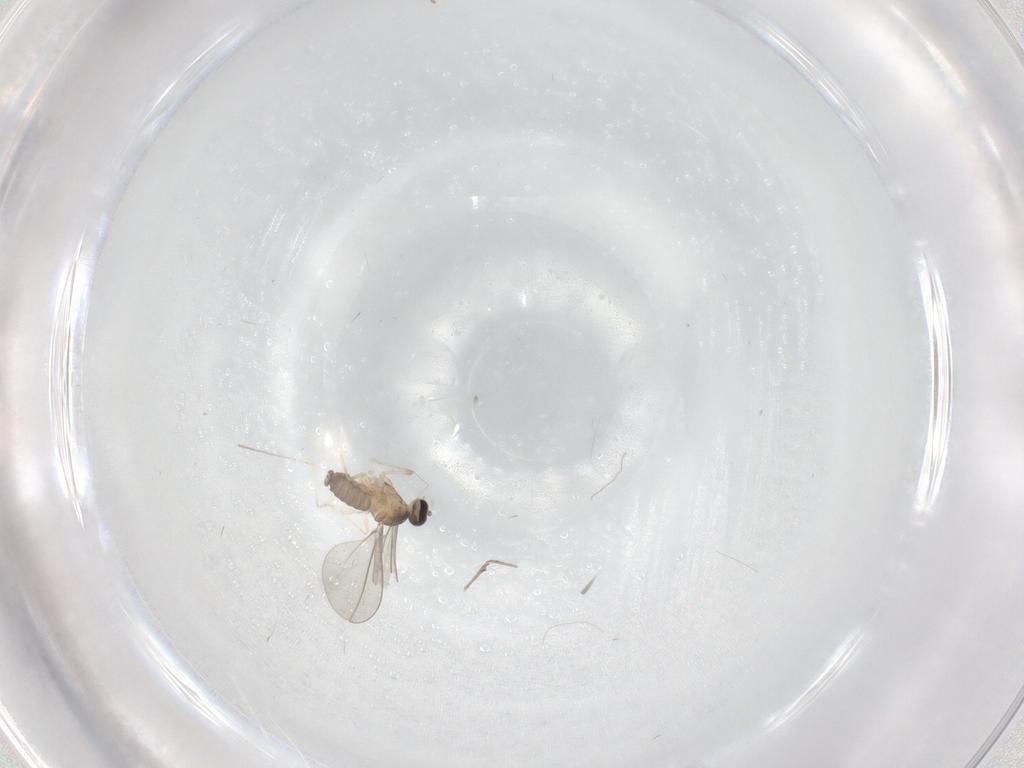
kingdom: Animalia
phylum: Arthropoda
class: Insecta
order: Diptera
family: Cecidomyiidae
